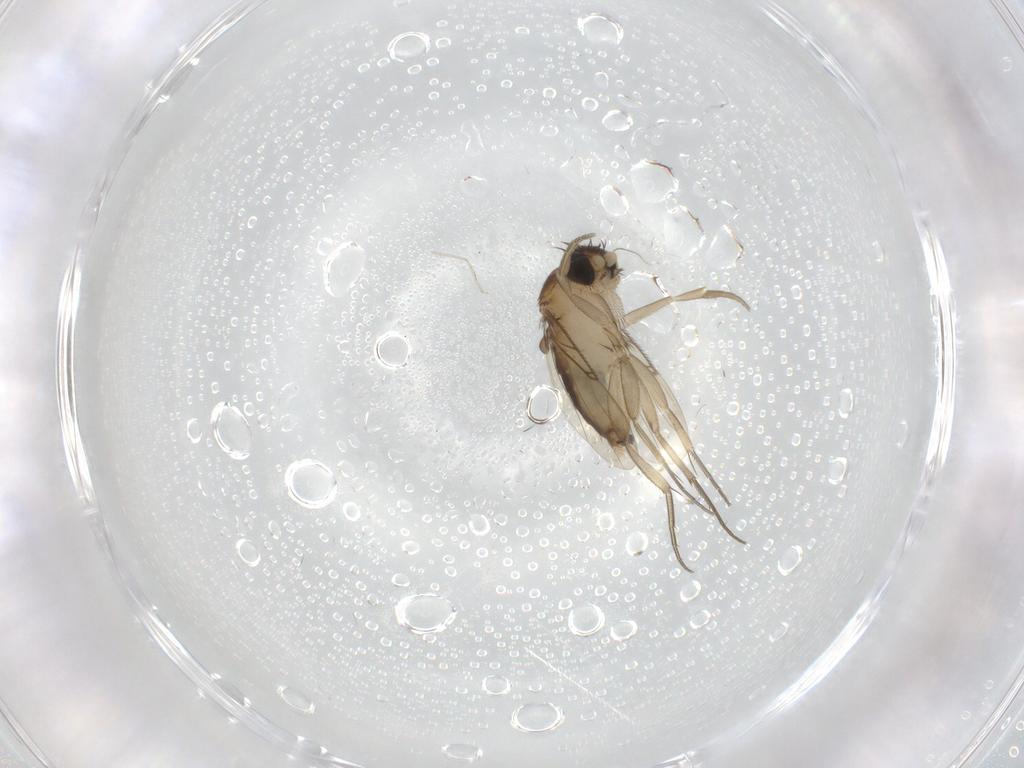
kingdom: Animalia
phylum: Arthropoda
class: Insecta
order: Diptera
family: Phoridae
